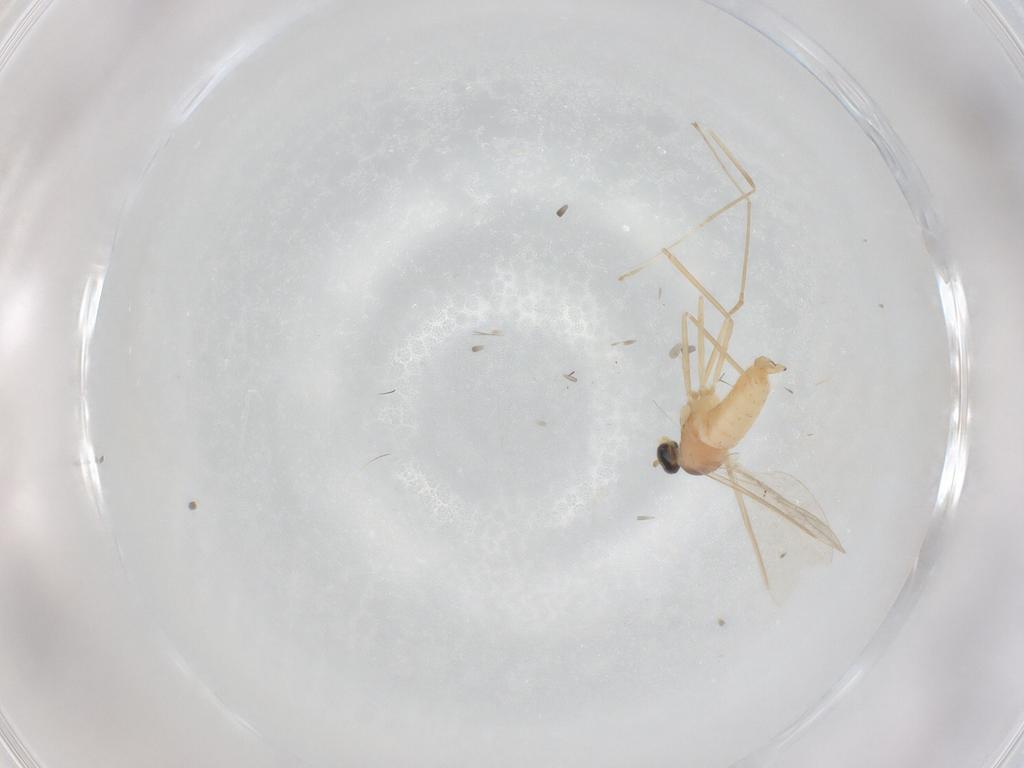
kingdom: Animalia
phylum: Arthropoda
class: Insecta
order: Diptera
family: Cecidomyiidae
